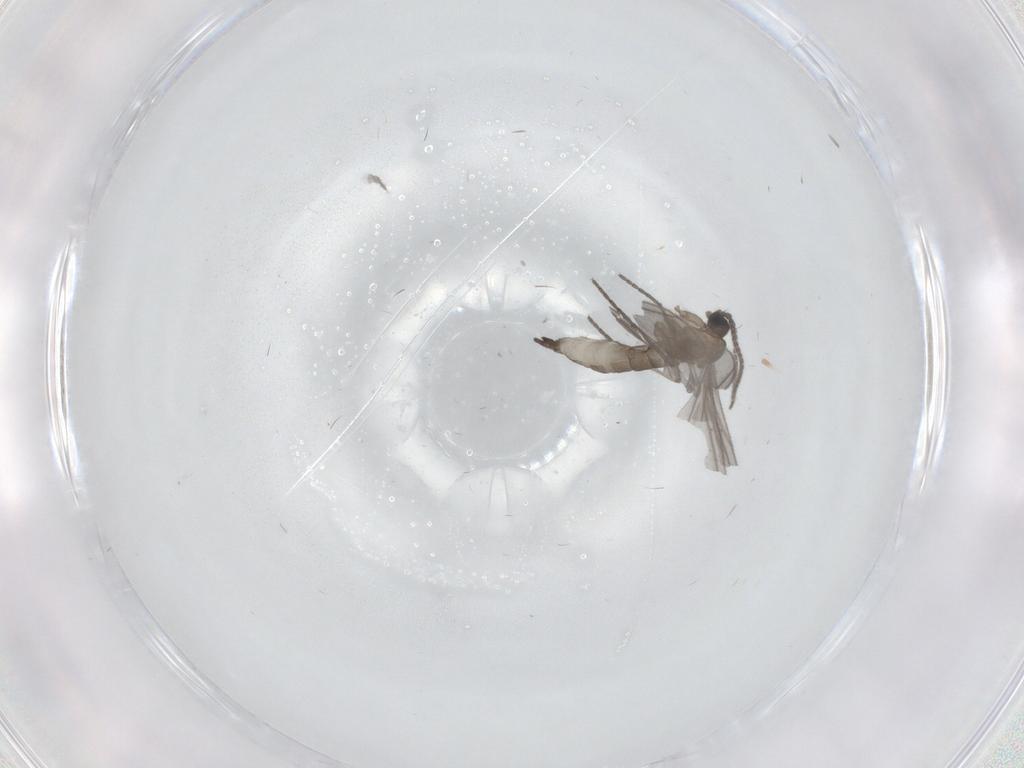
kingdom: Animalia
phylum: Arthropoda
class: Insecta
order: Diptera
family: Sciaridae
